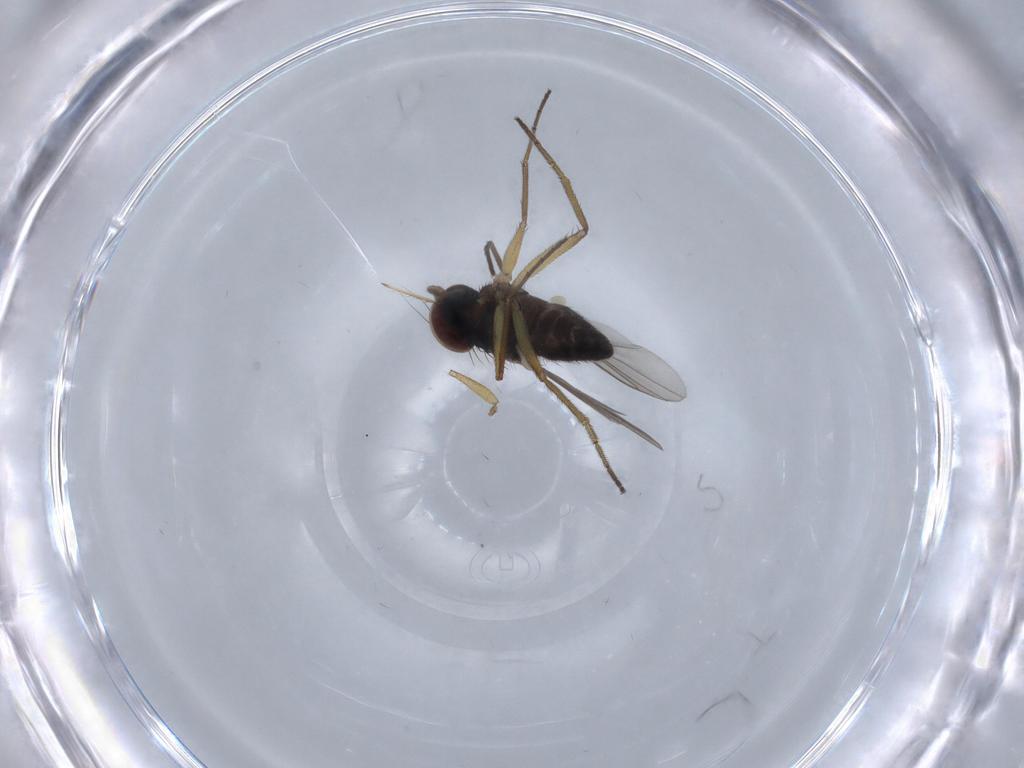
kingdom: Animalia
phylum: Arthropoda
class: Insecta
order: Diptera
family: Dolichopodidae
